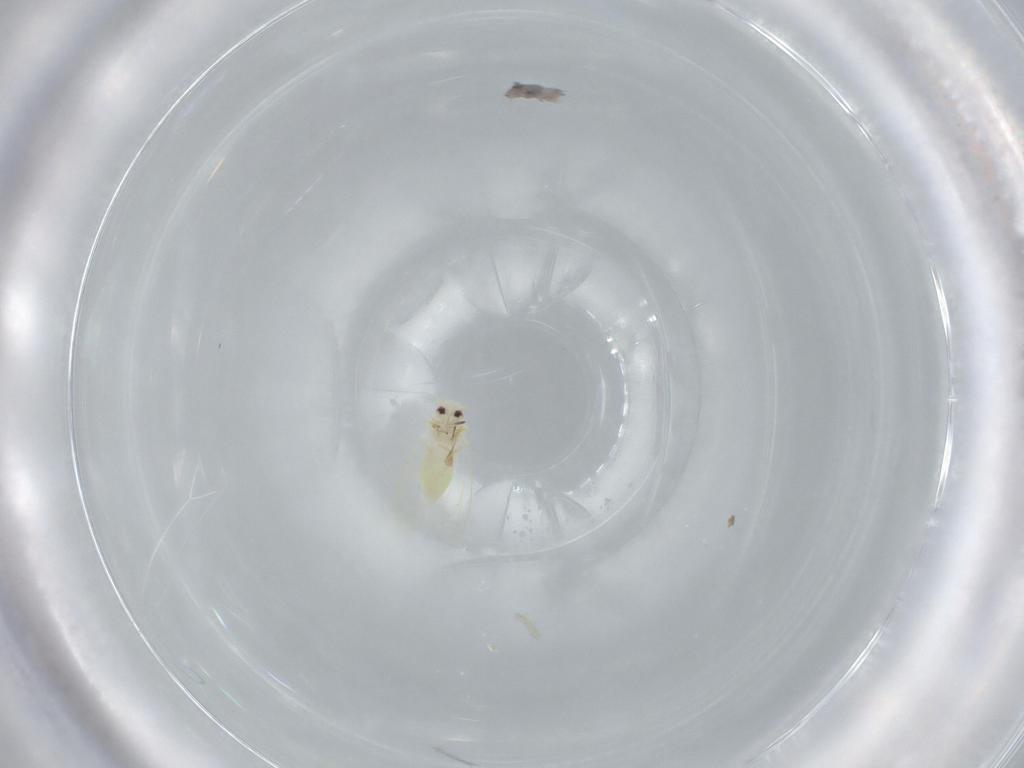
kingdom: Animalia
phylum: Arthropoda
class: Insecta
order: Hemiptera
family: Aleyrodidae
